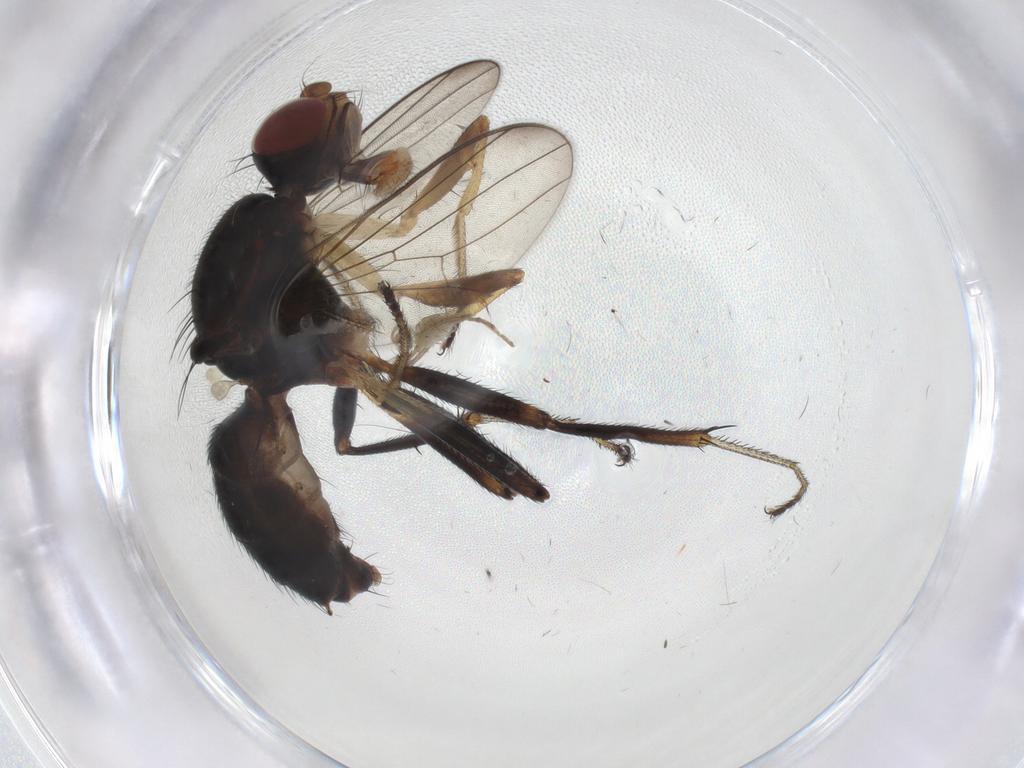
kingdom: Animalia
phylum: Arthropoda
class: Insecta
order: Diptera
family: Sepsidae
